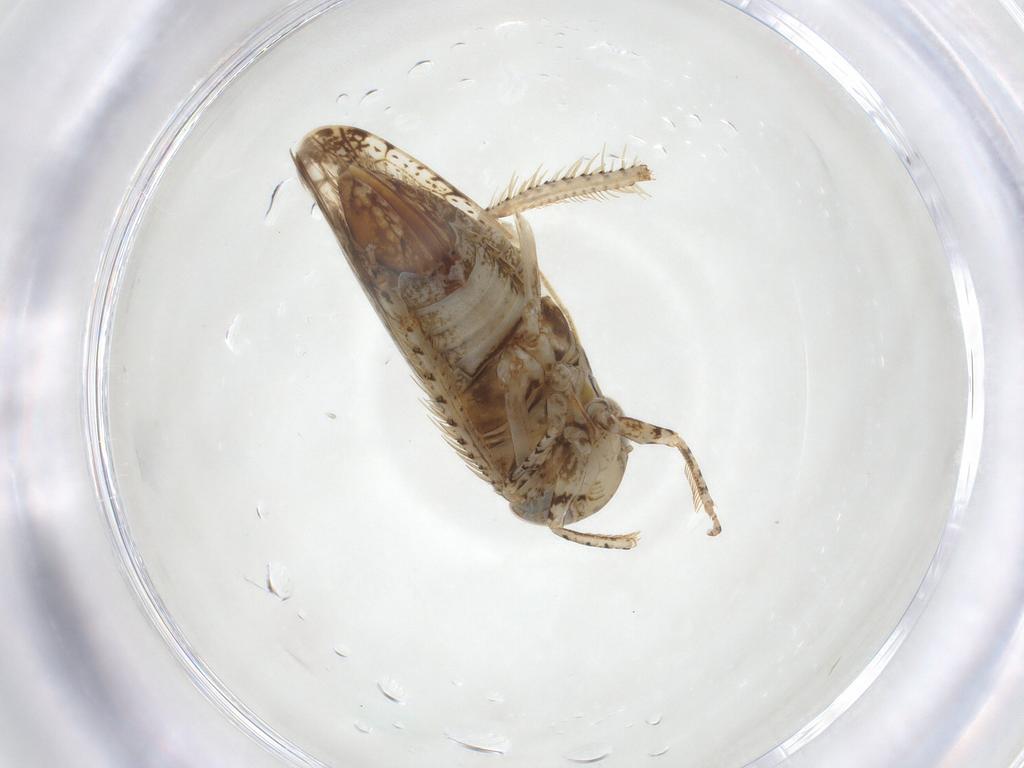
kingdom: Animalia
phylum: Arthropoda
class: Insecta
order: Hemiptera
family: Cicadellidae
